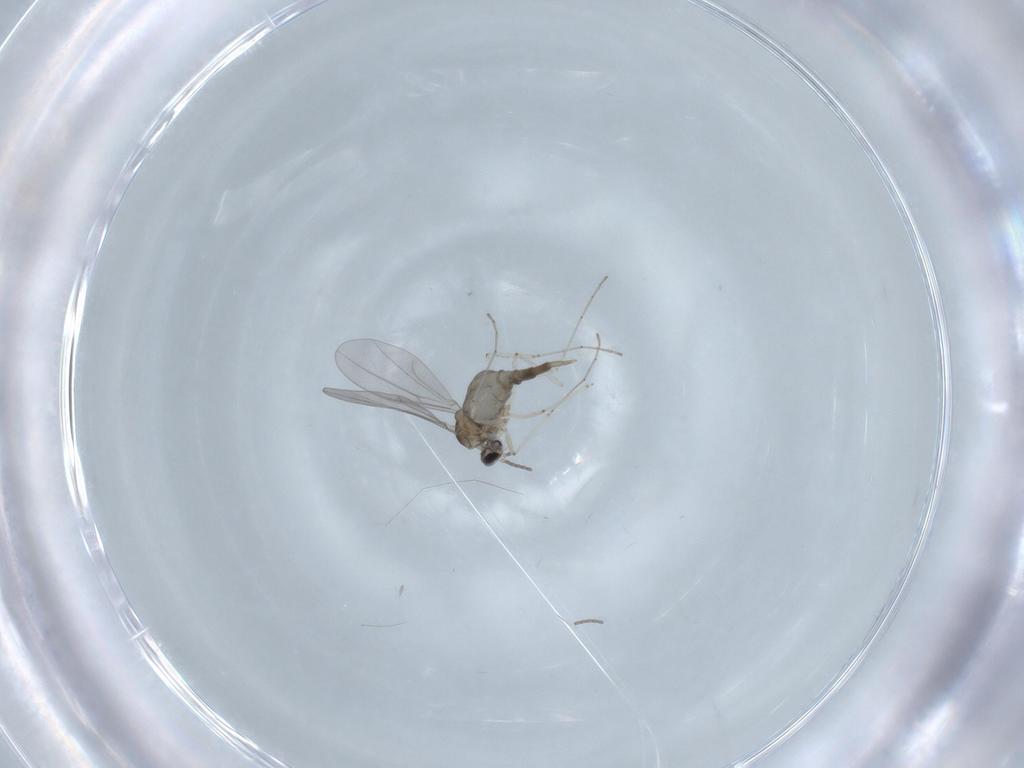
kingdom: Animalia
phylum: Arthropoda
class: Insecta
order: Diptera
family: Cecidomyiidae
